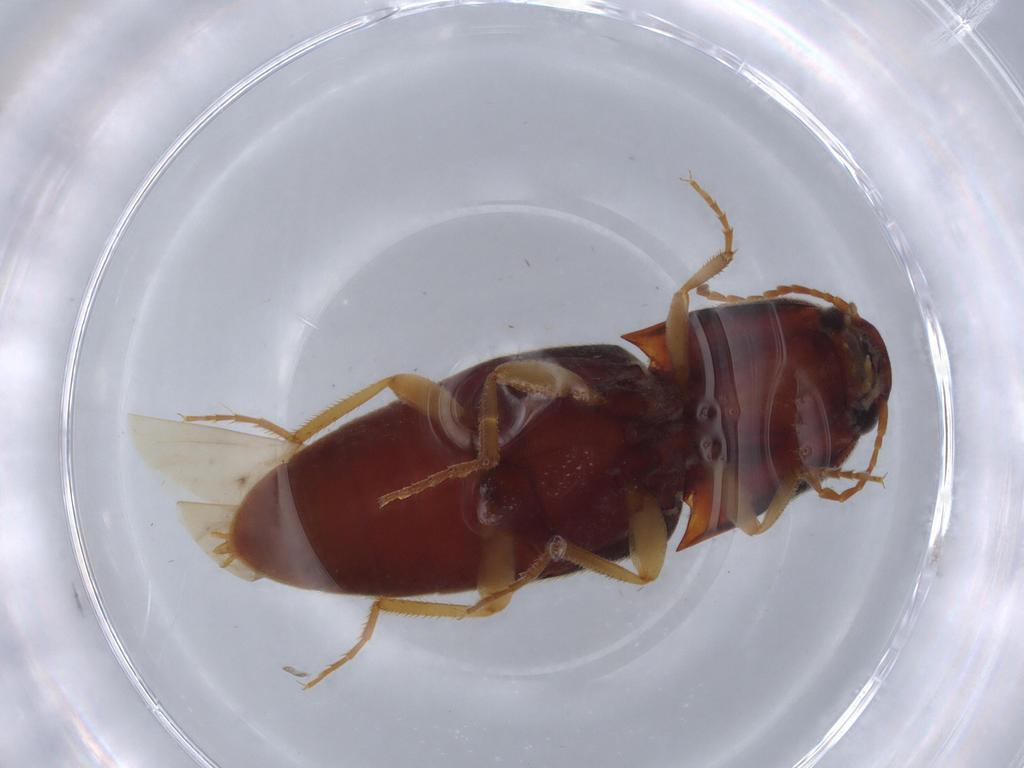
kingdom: Animalia
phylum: Arthropoda
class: Insecta
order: Coleoptera
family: Elateridae
